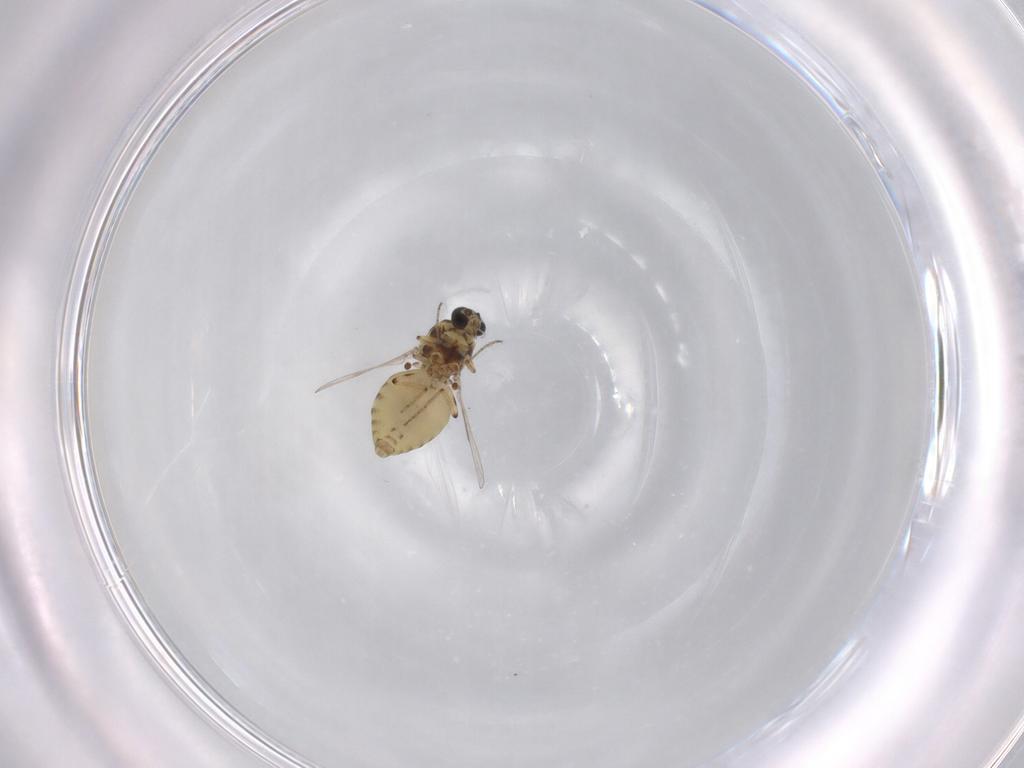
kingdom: Animalia
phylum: Arthropoda
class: Insecta
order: Diptera
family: Ceratopogonidae
